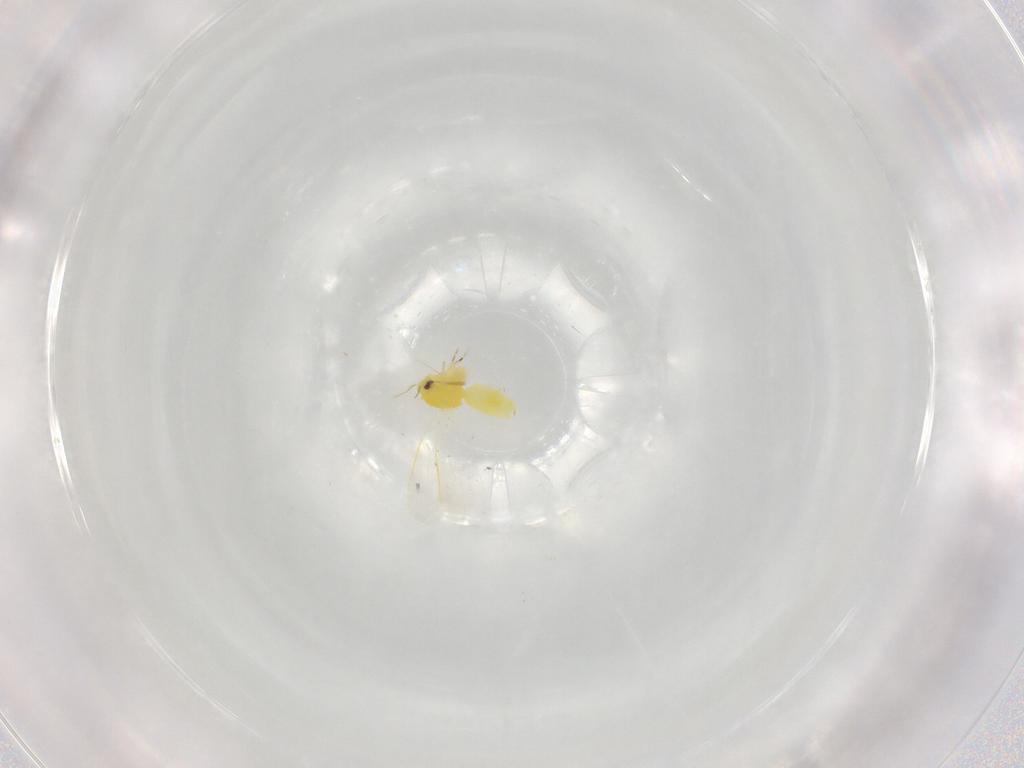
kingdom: Animalia
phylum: Arthropoda
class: Insecta
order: Hemiptera
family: Aleyrodidae
